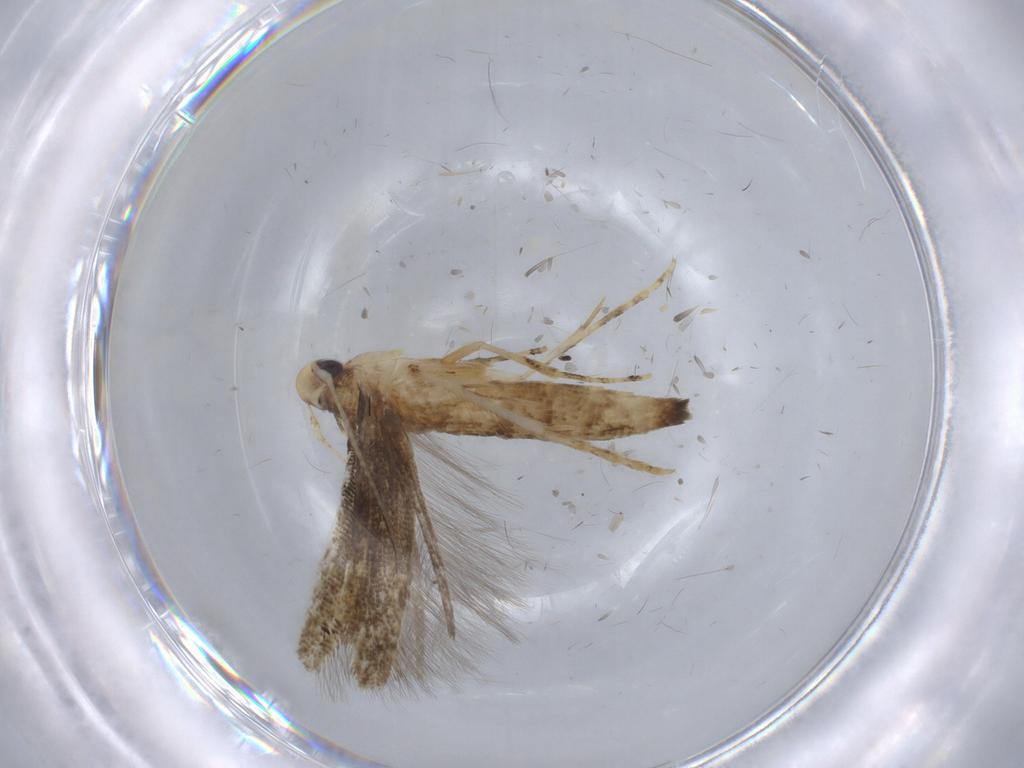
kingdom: Animalia
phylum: Arthropoda
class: Insecta
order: Lepidoptera
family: Gelechiidae
